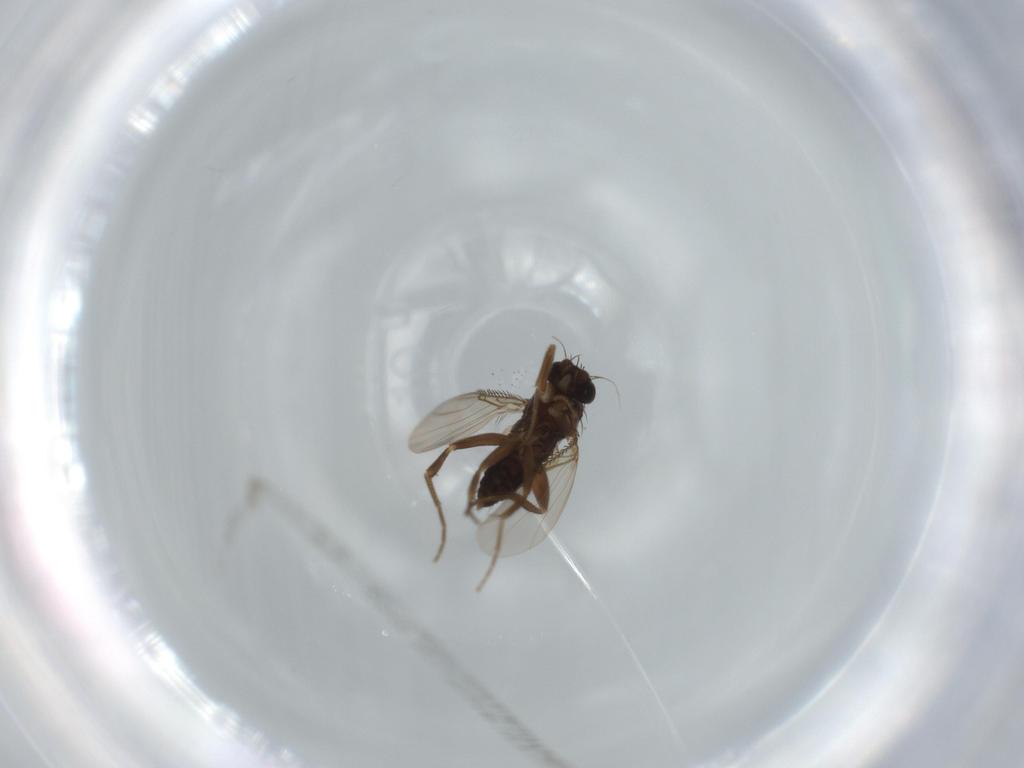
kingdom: Animalia
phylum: Arthropoda
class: Insecta
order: Diptera
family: Phoridae
